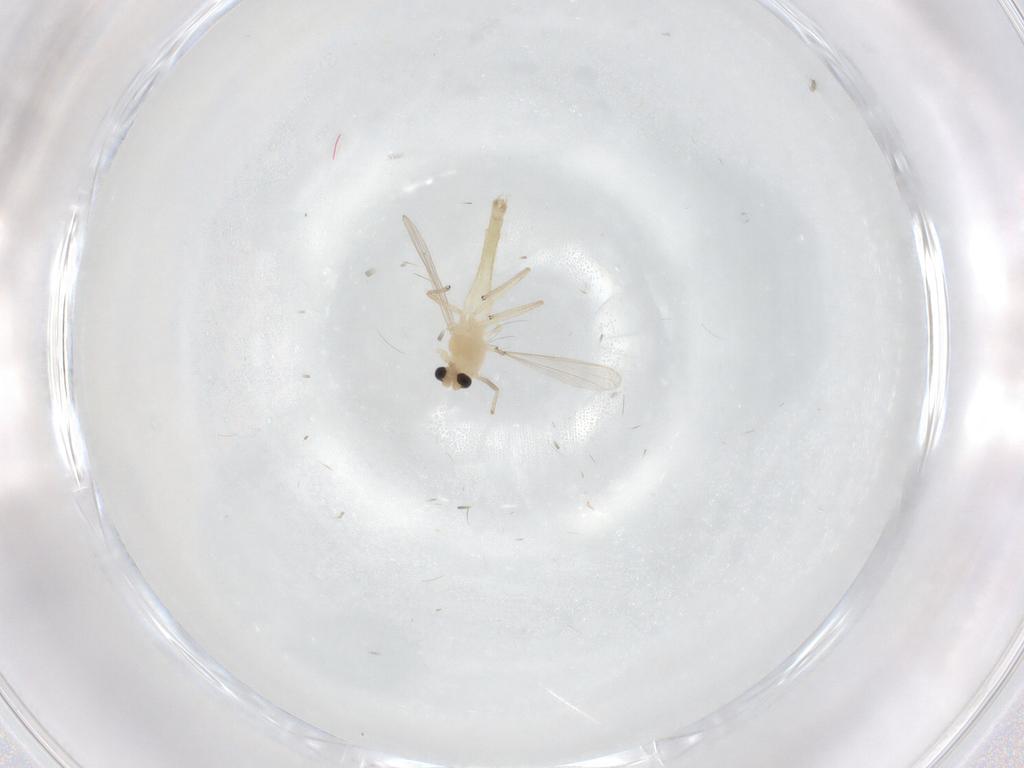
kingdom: Animalia
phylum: Arthropoda
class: Insecta
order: Diptera
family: Chironomidae
